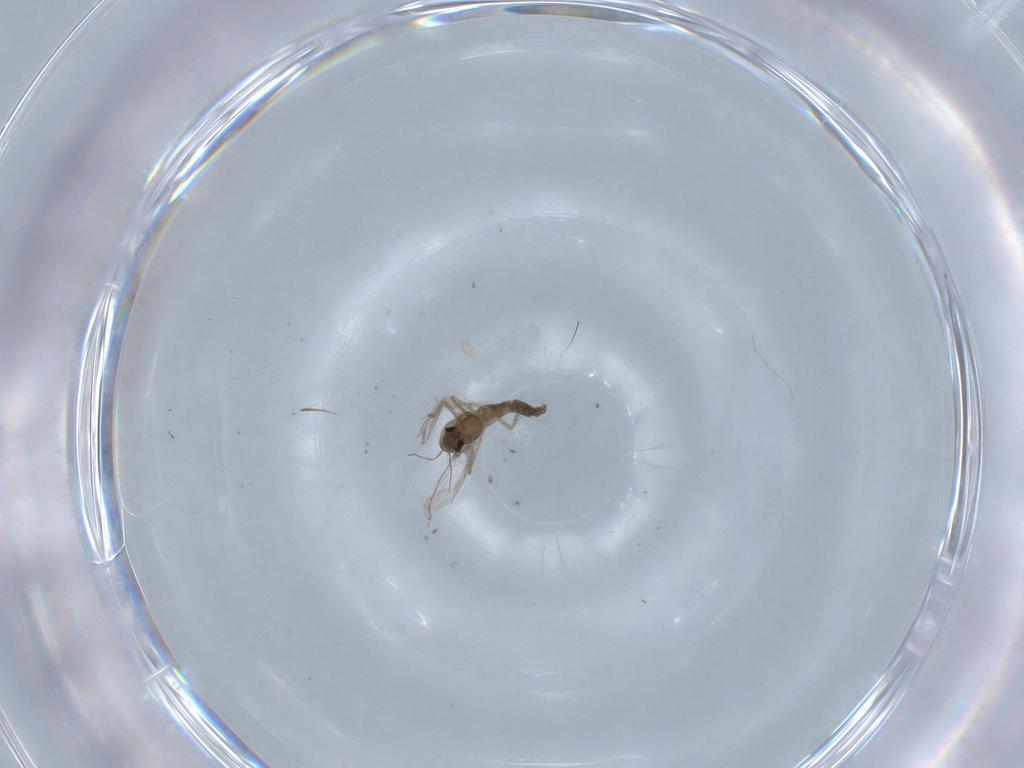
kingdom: Animalia
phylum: Arthropoda
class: Insecta
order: Diptera
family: Chironomidae
